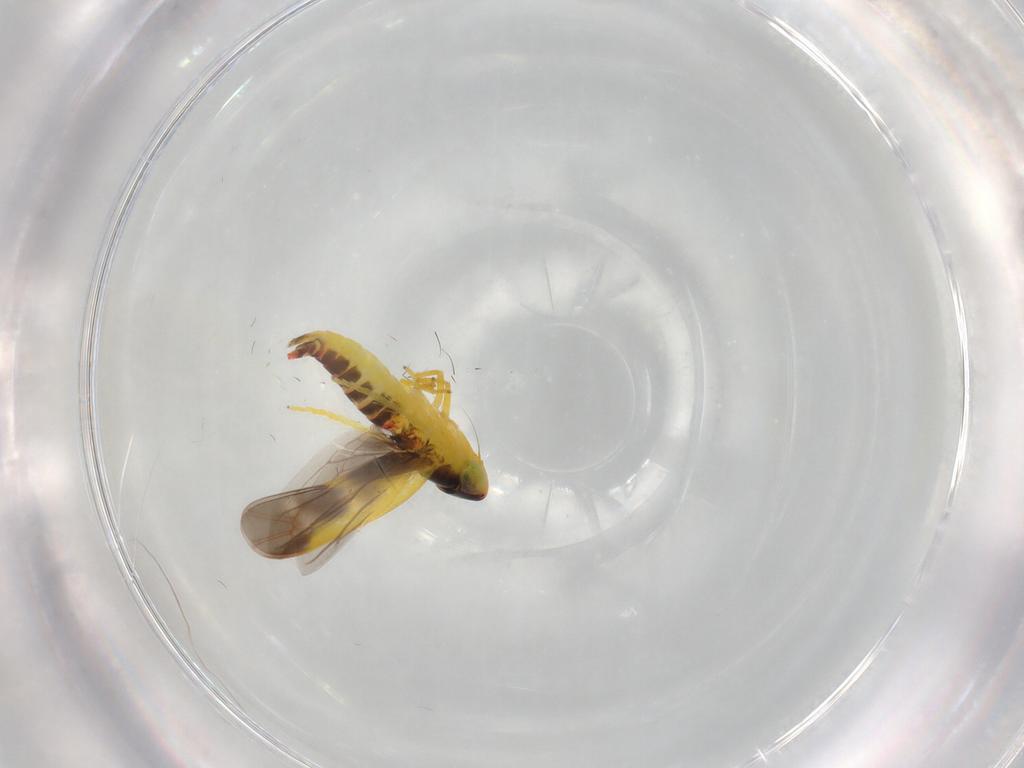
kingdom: Animalia
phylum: Arthropoda
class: Insecta
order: Hemiptera
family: Cicadellidae
